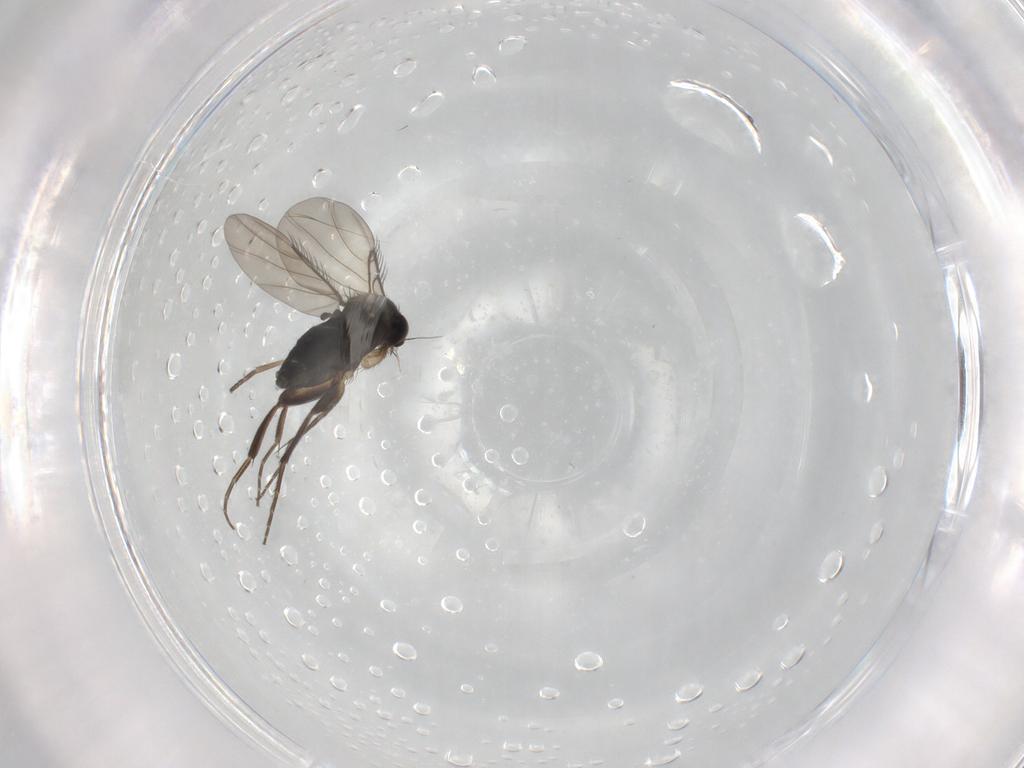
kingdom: Animalia
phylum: Arthropoda
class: Insecta
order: Diptera
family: Phoridae
